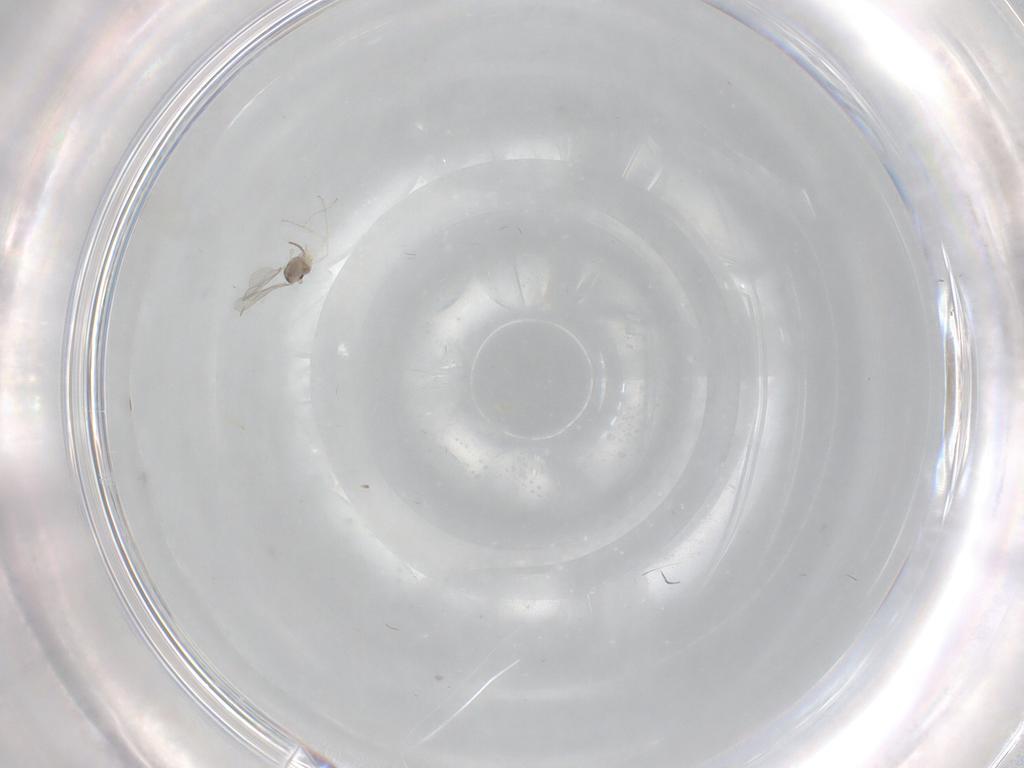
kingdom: Animalia
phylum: Arthropoda
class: Insecta
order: Diptera
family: Cecidomyiidae
